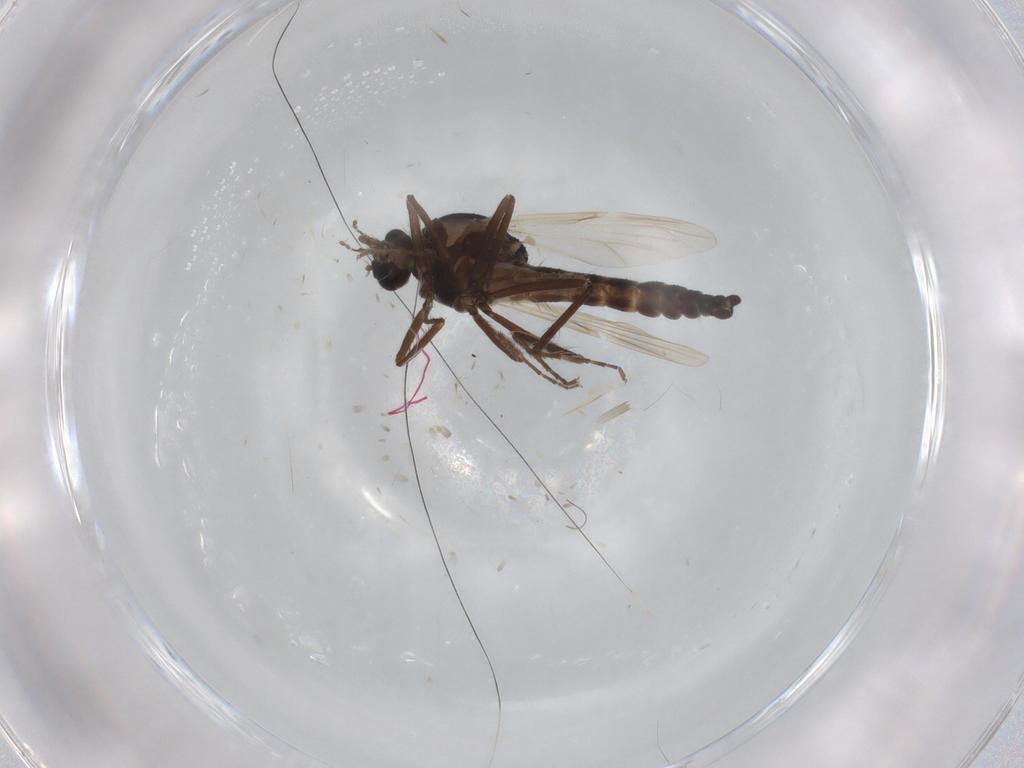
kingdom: Animalia
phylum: Arthropoda
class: Insecta
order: Diptera
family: Ceratopogonidae
